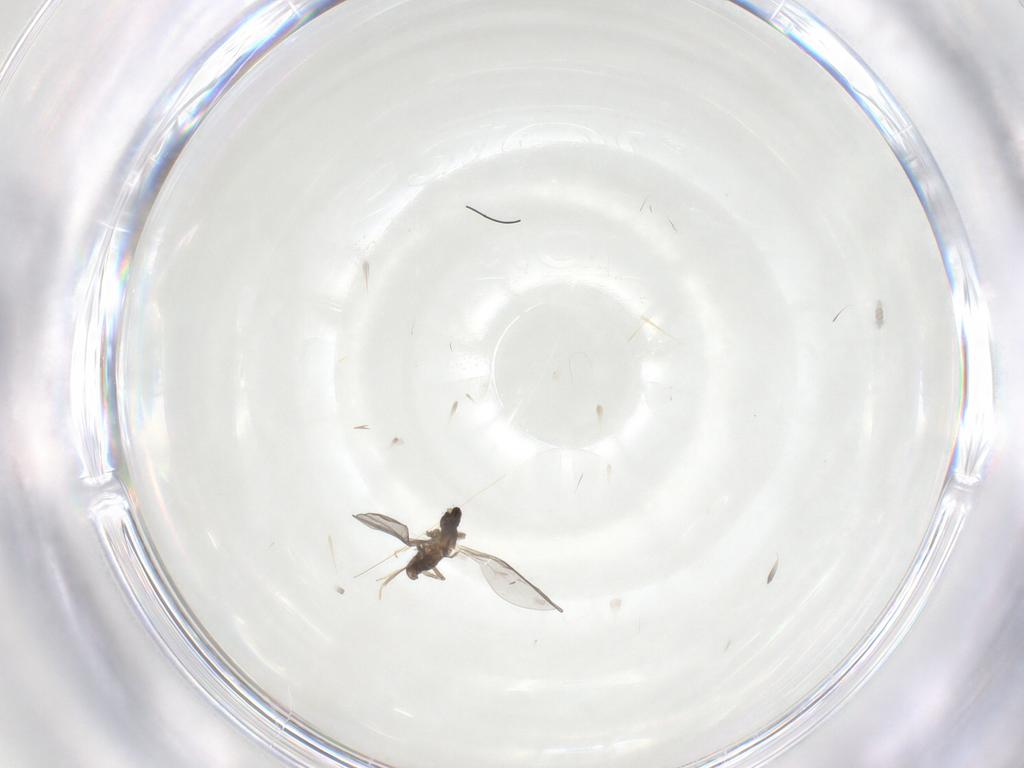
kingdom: Animalia
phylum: Arthropoda
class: Insecta
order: Diptera
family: Cecidomyiidae
